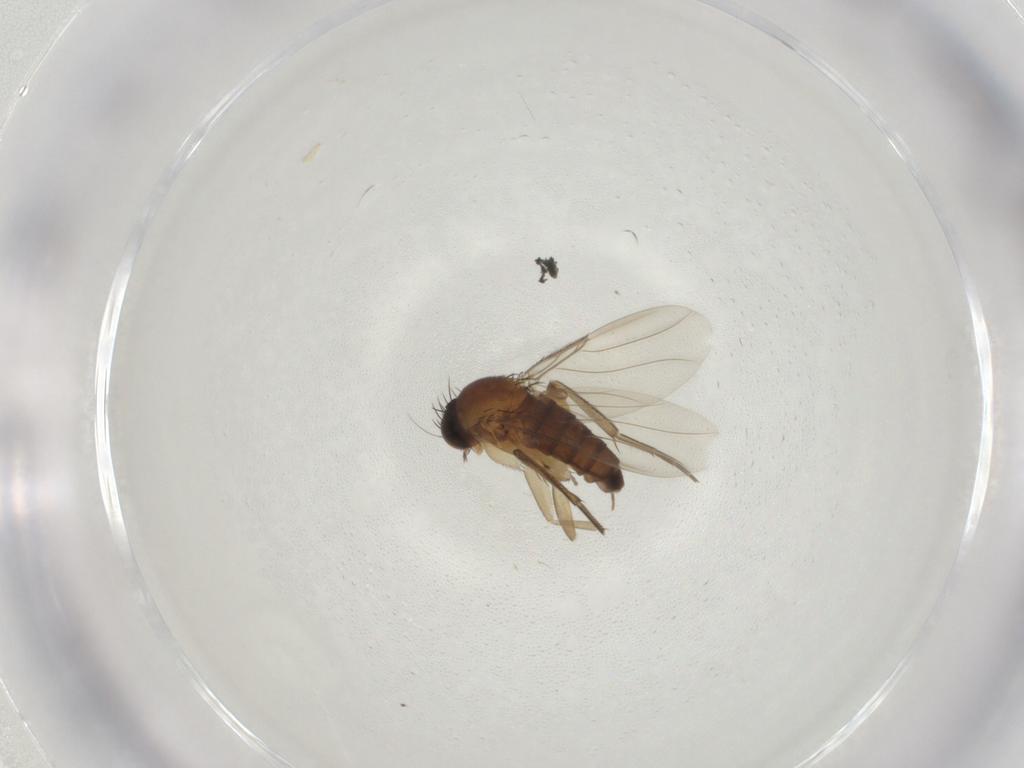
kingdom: Animalia
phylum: Arthropoda
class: Insecta
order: Diptera
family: Phoridae
